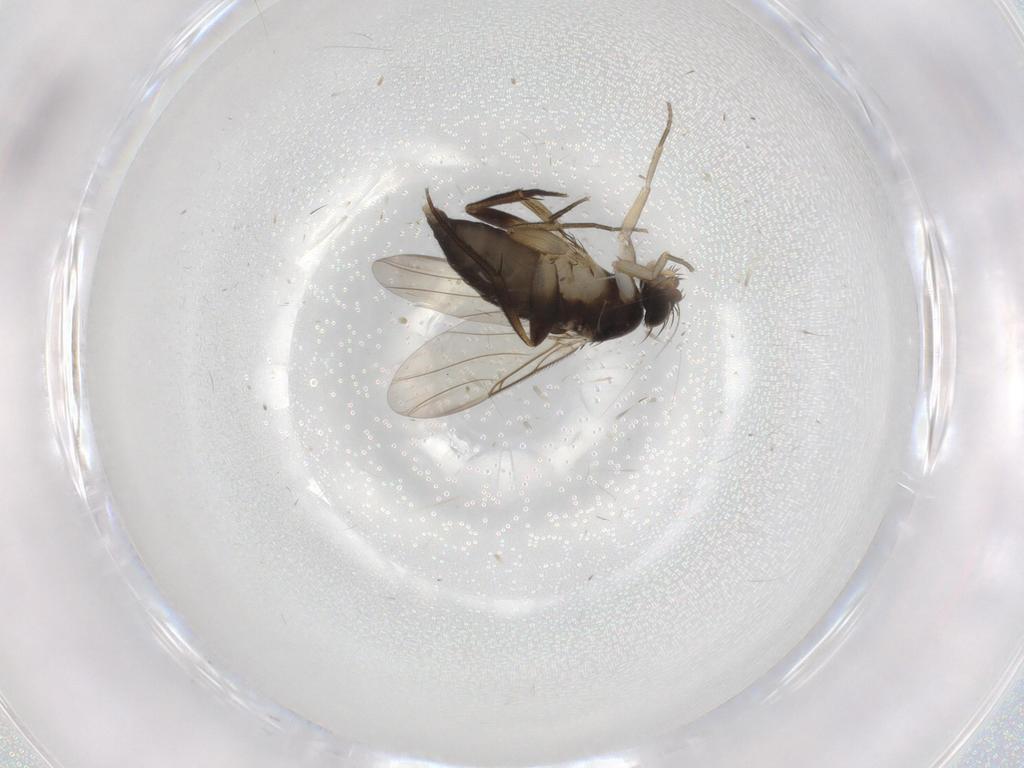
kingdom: Animalia
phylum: Arthropoda
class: Insecta
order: Diptera
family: Phoridae
